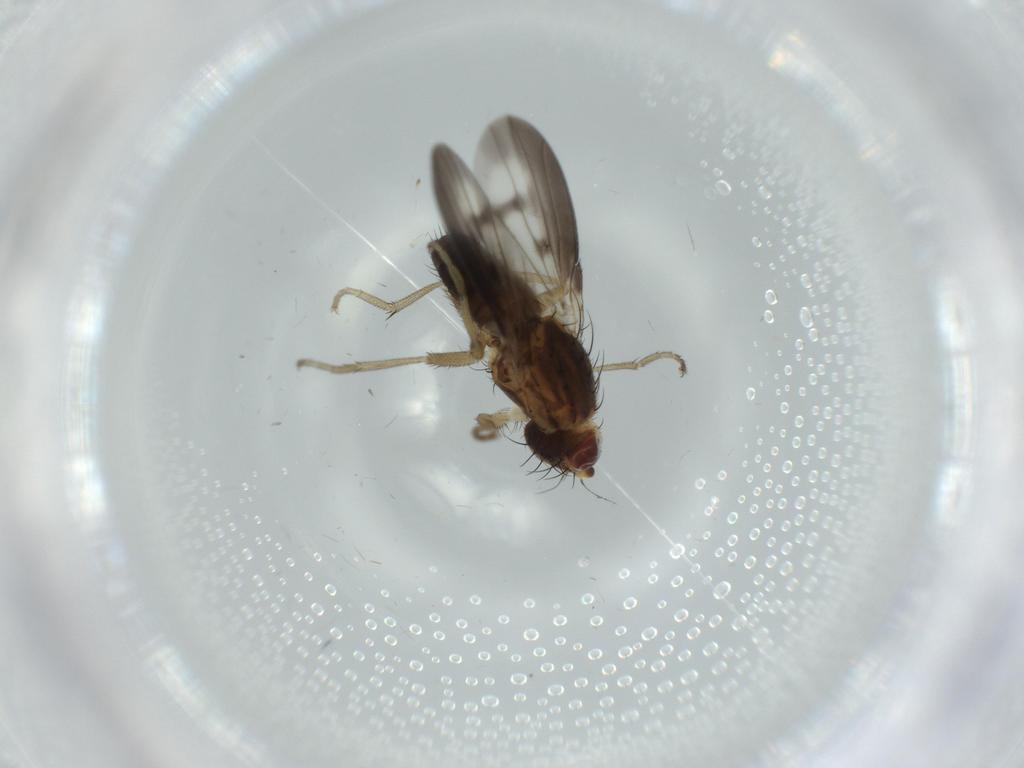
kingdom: Animalia
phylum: Arthropoda
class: Insecta
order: Diptera
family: Heleomyzidae
